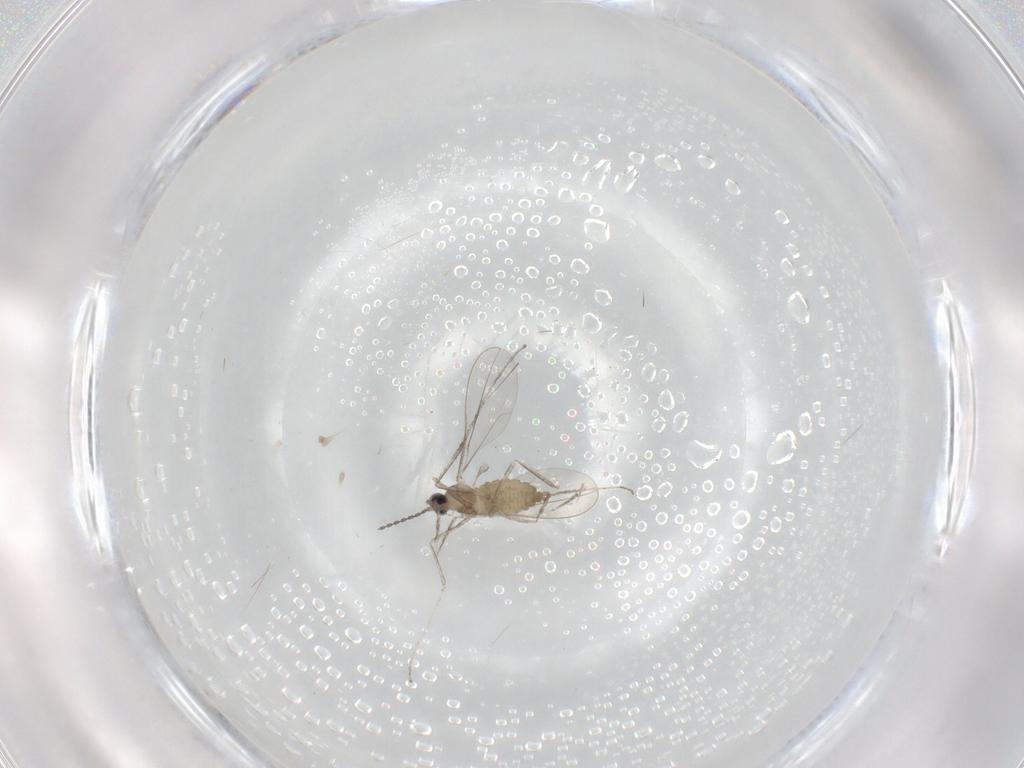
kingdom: Animalia
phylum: Arthropoda
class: Insecta
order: Diptera
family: Cecidomyiidae
